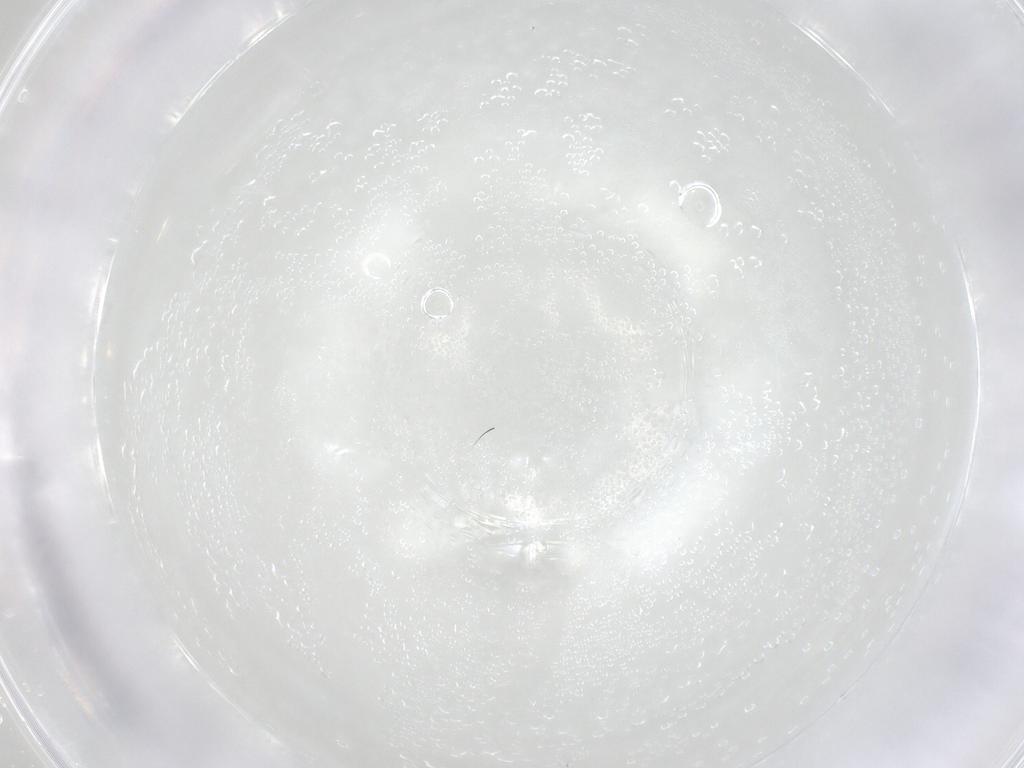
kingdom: Animalia
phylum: Arthropoda
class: Insecta
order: Diptera
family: Cecidomyiidae
